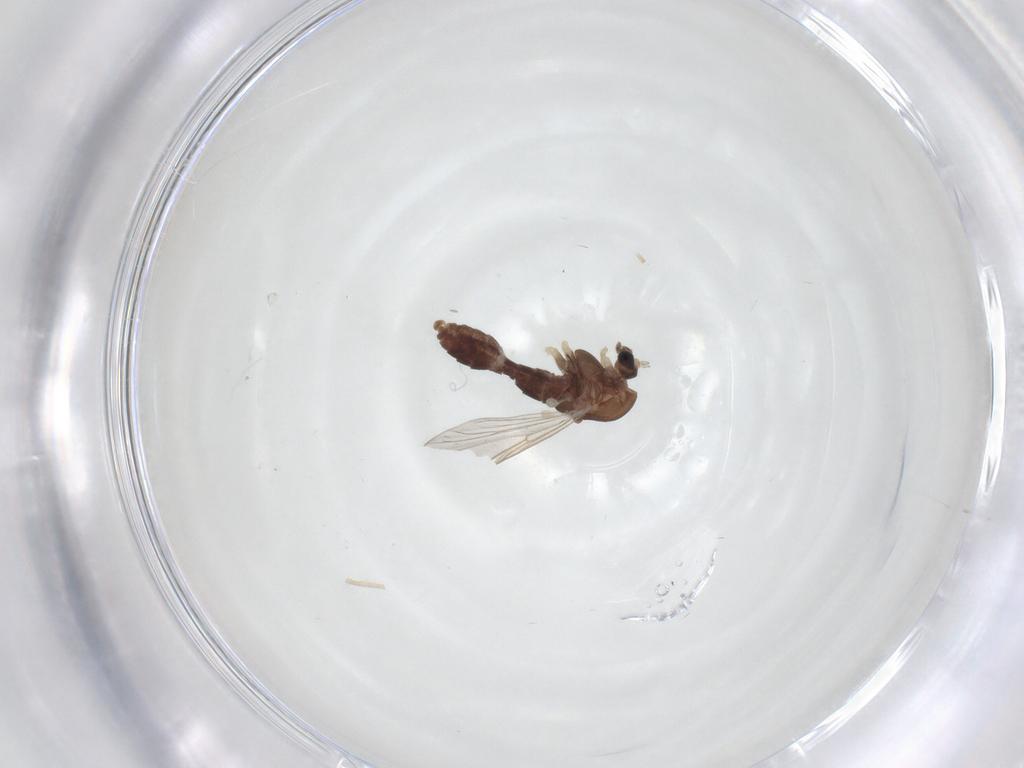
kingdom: Animalia
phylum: Arthropoda
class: Insecta
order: Diptera
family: Chironomidae
